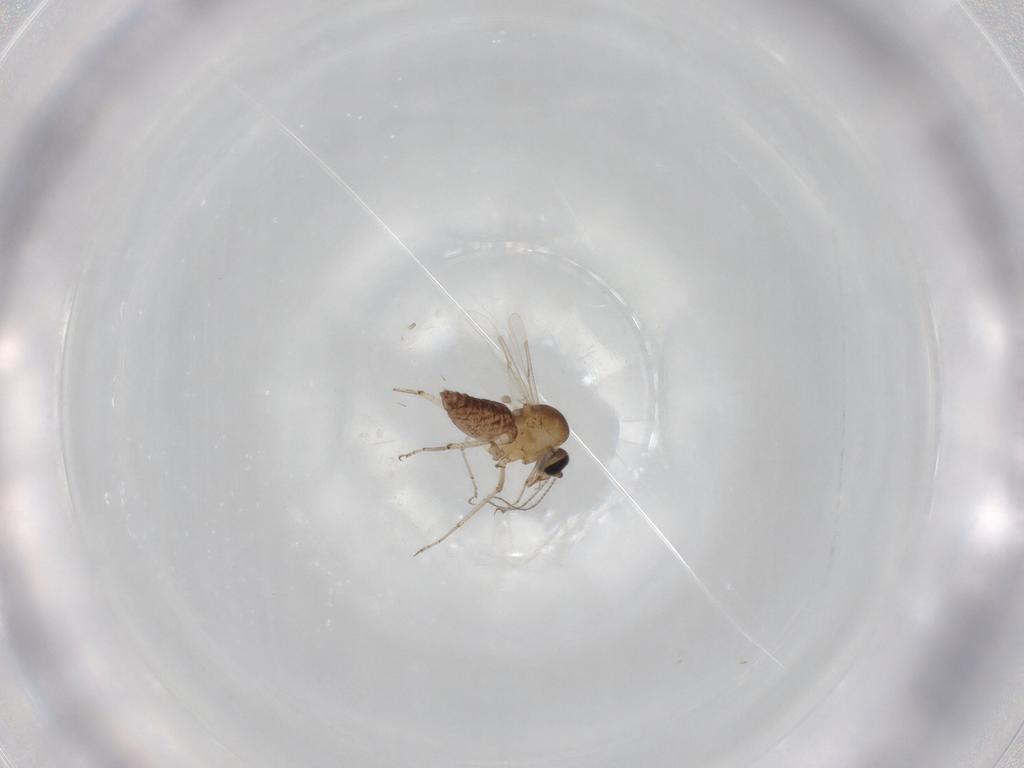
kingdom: Animalia
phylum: Arthropoda
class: Insecta
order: Diptera
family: Ceratopogonidae
